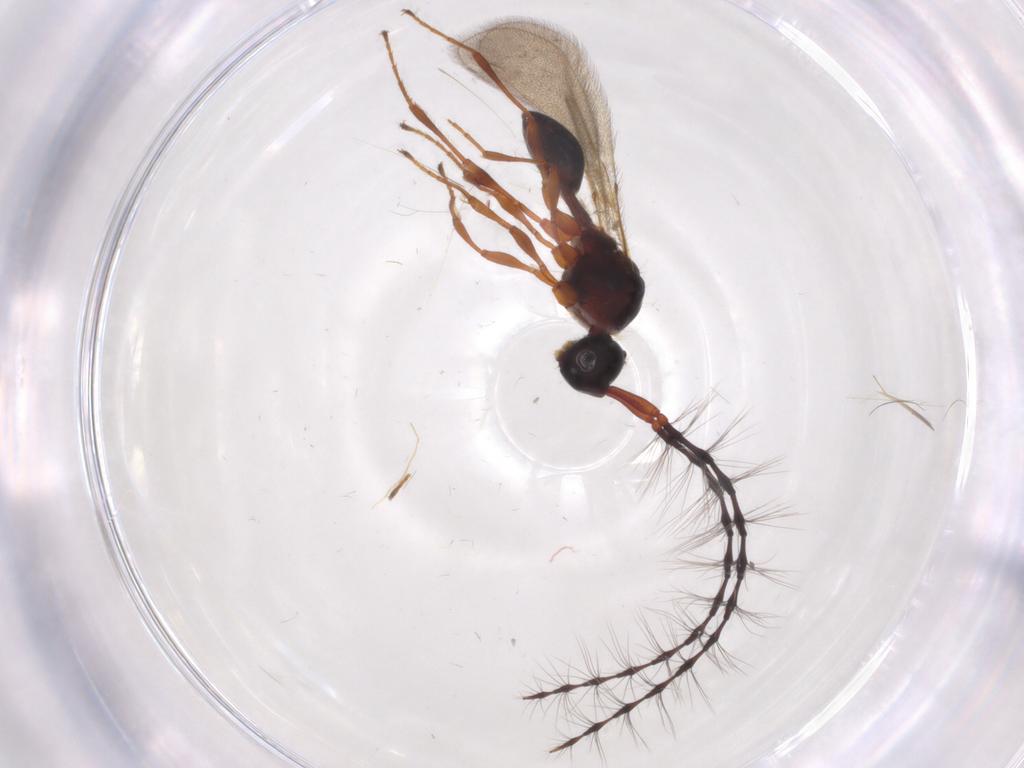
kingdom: Animalia
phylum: Arthropoda
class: Insecta
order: Hymenoptera
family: Diapriidae
